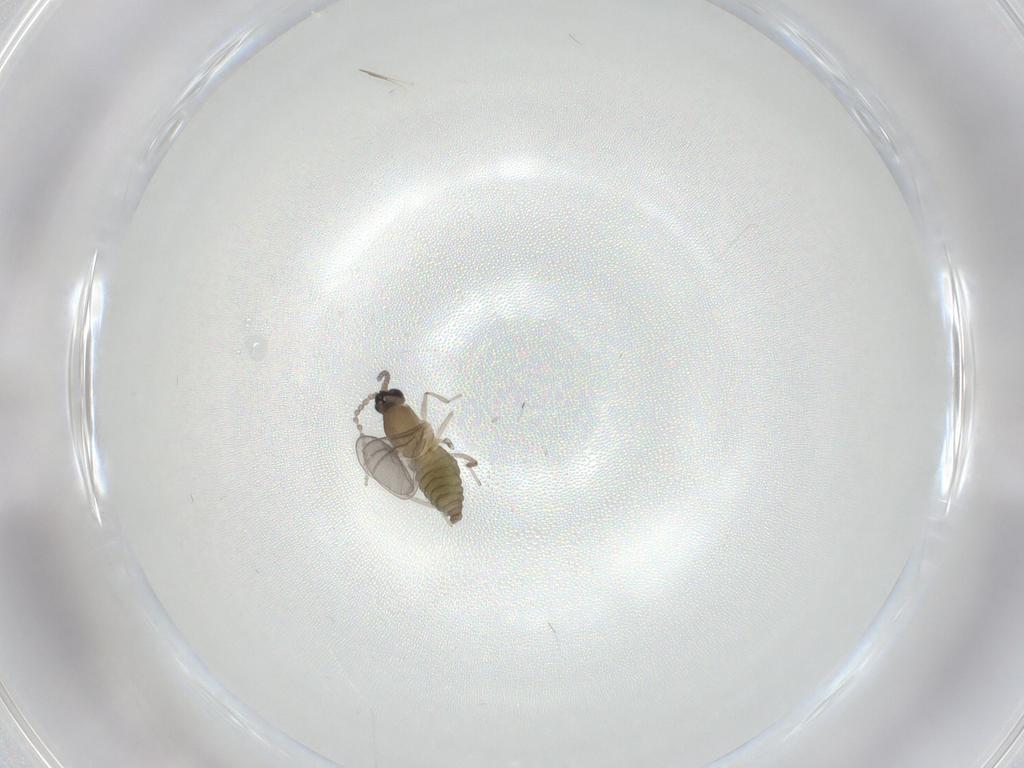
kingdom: Animalia
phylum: Arthropoda
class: Insecta
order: Diptera
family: Cecidomyiidae
